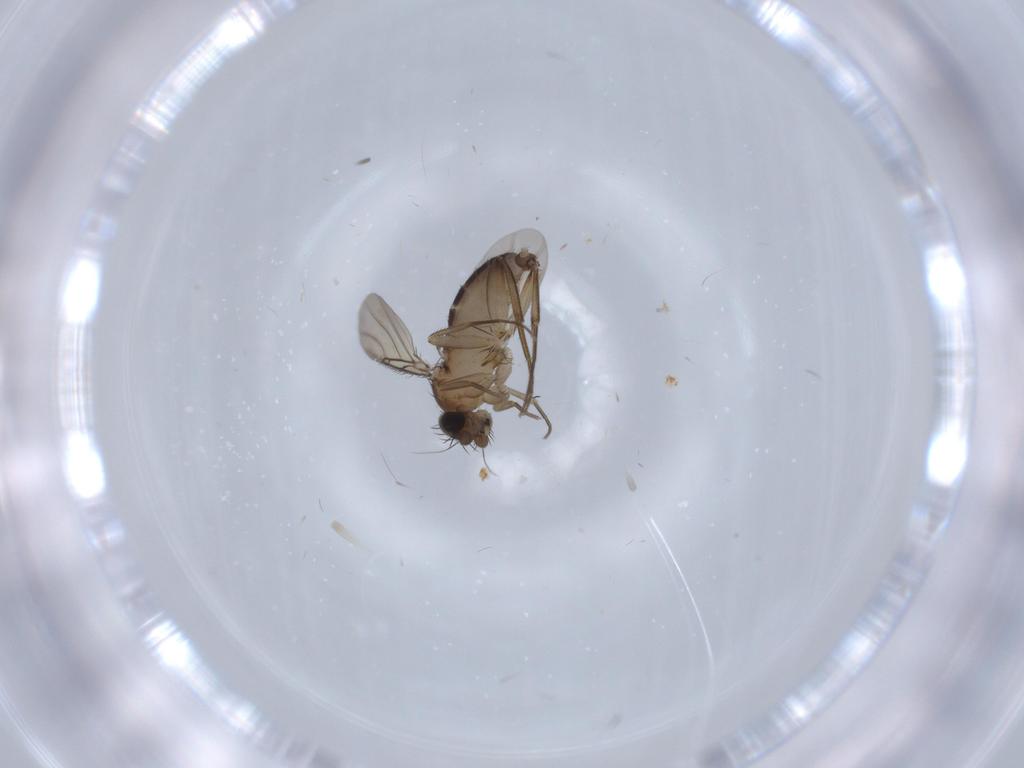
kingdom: Animalia
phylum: Arthropoda
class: Insecta
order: Diptera
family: Phoridae
